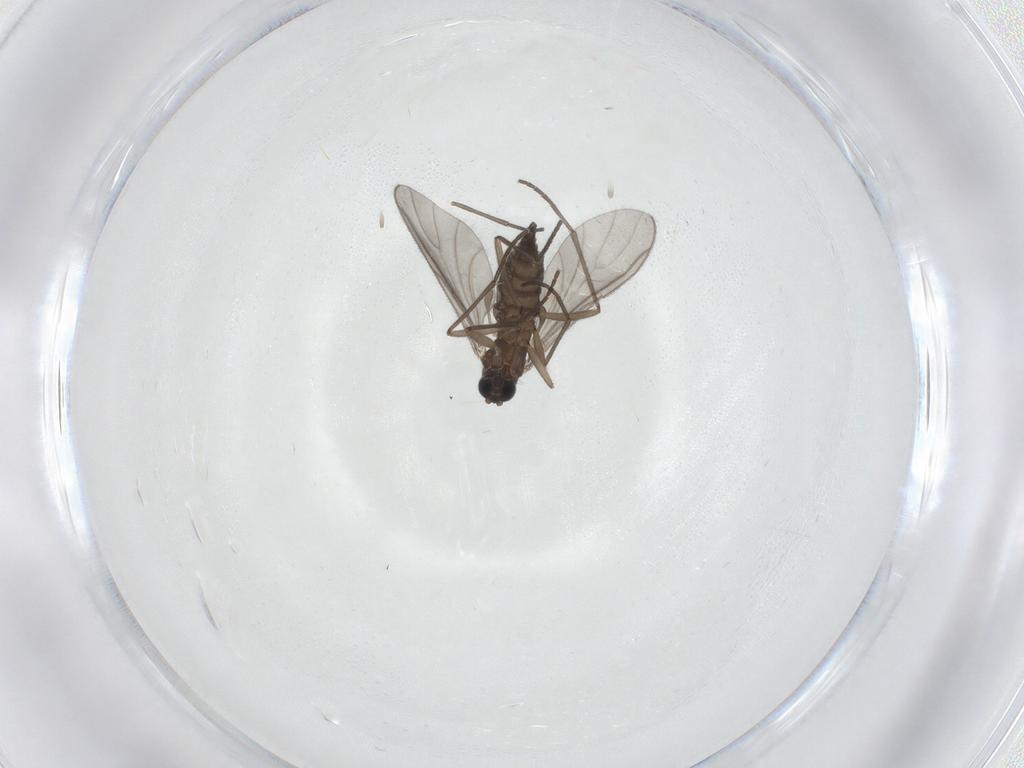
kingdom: Animalia
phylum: Arthropoda
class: Insecta
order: Diptera
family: Sciaridae
